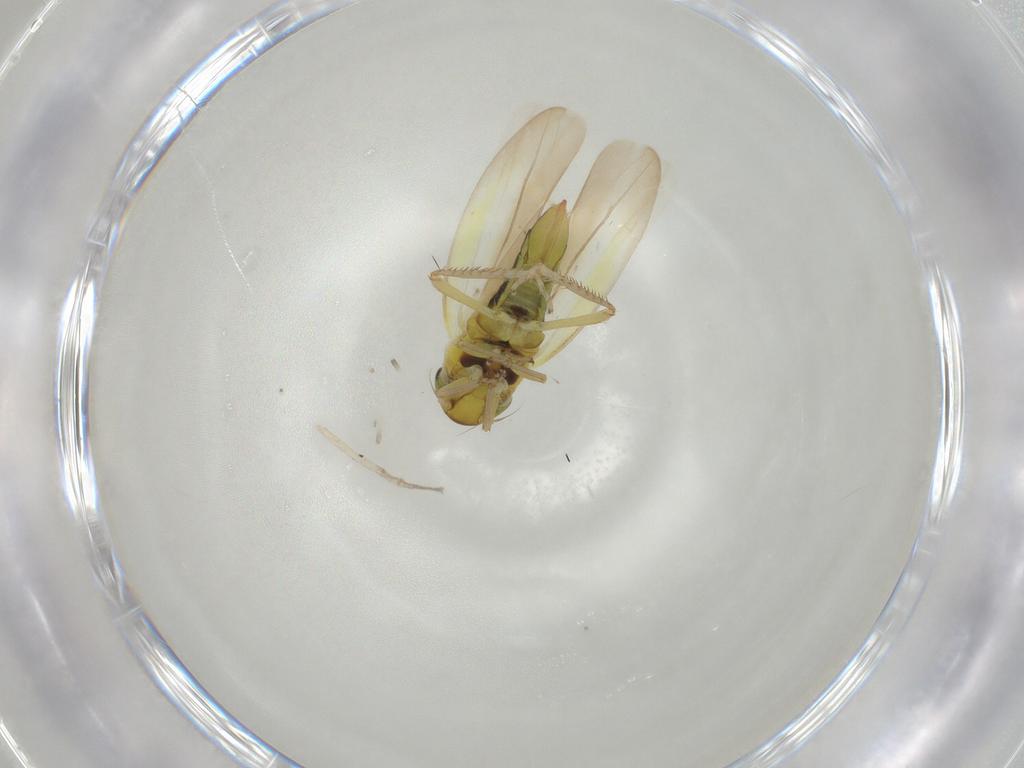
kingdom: Animalia
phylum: Arthropoda
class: Insecta
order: Hemiptera
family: Cicadellidae
